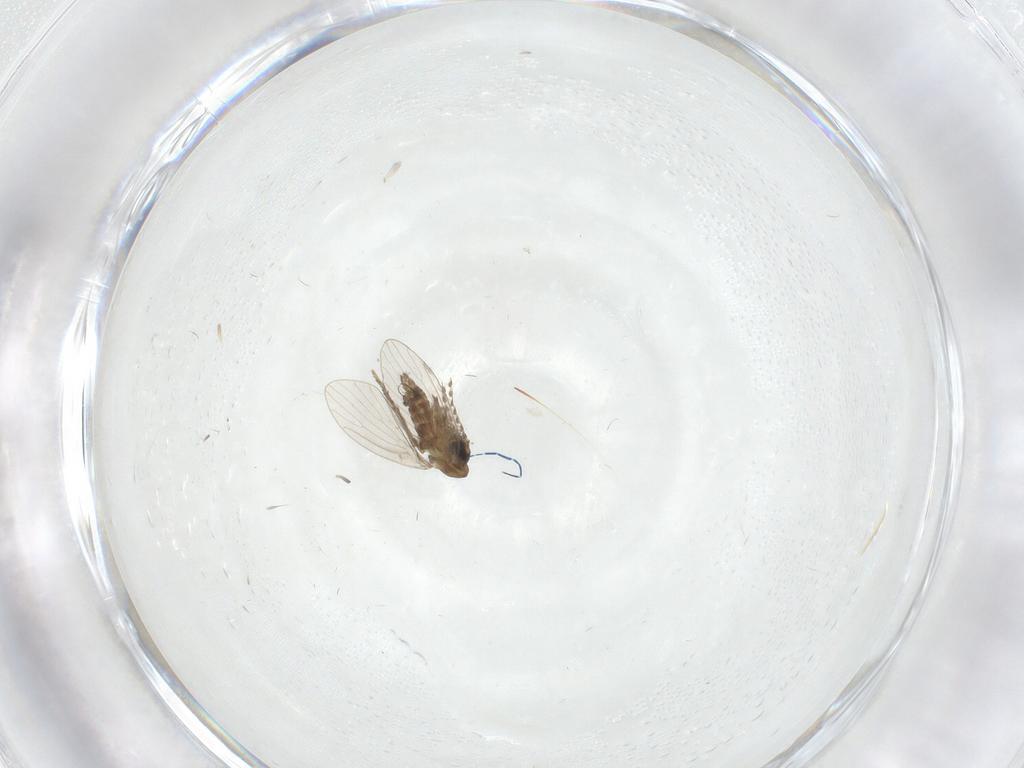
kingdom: Animalia
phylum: Arthropoda
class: Insecta
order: Diptera
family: Tipulidae
